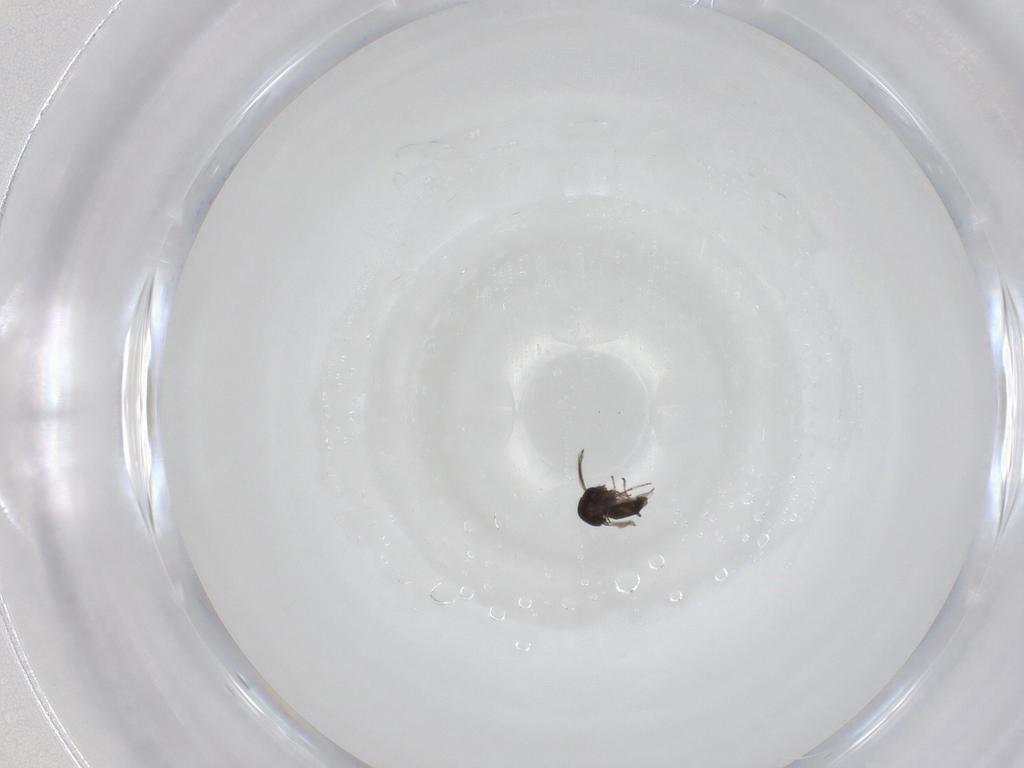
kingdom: Animalia
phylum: Arthropoda
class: Insecta
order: Diptera
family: Ceratopogonidae
